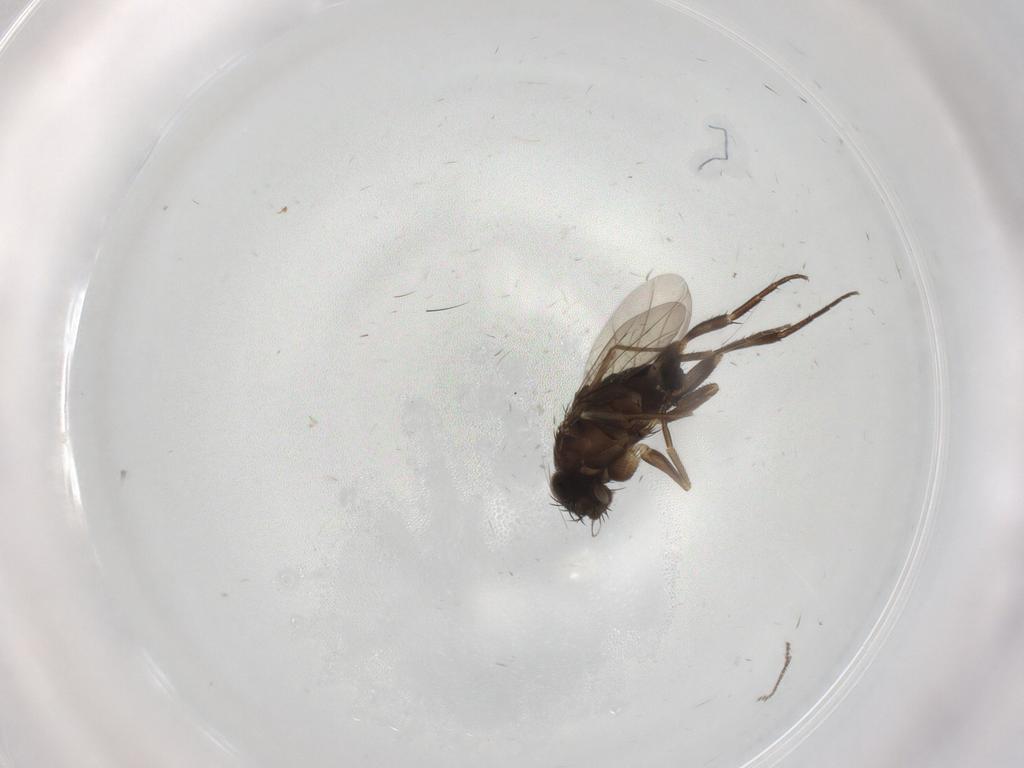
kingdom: Animalia
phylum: Arthropoda
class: Insecta
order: Diptera
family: Phoridae
